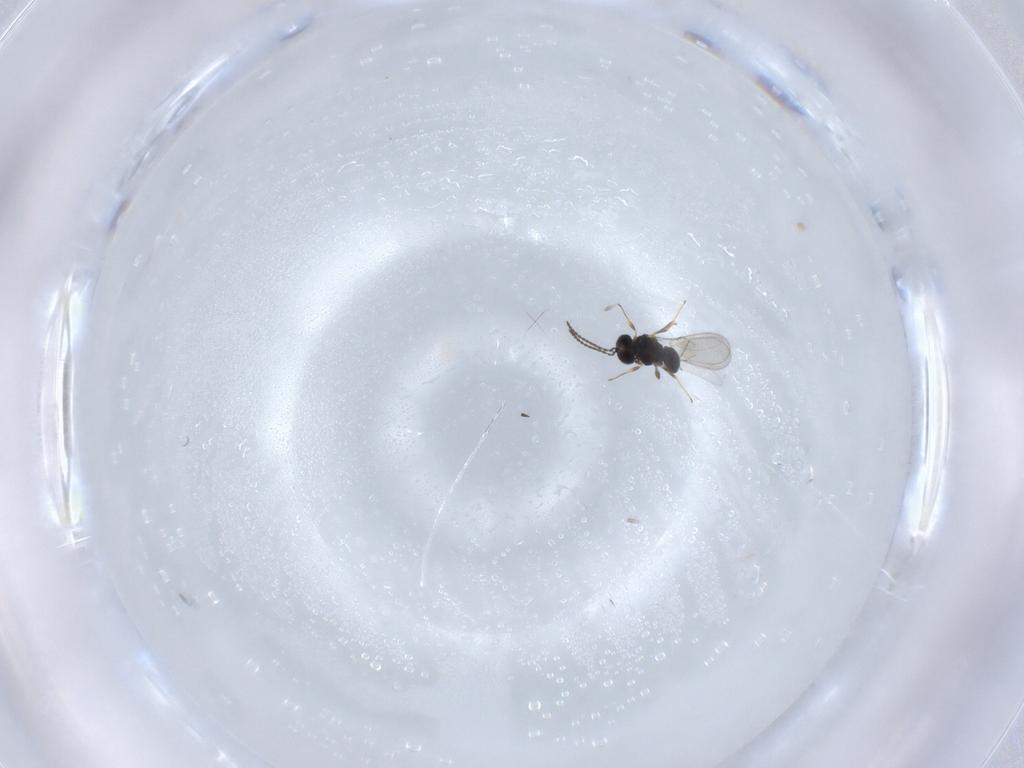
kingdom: Animalia
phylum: Arthropoda
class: Insecta
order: Hymenoptera
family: Scelionidae
